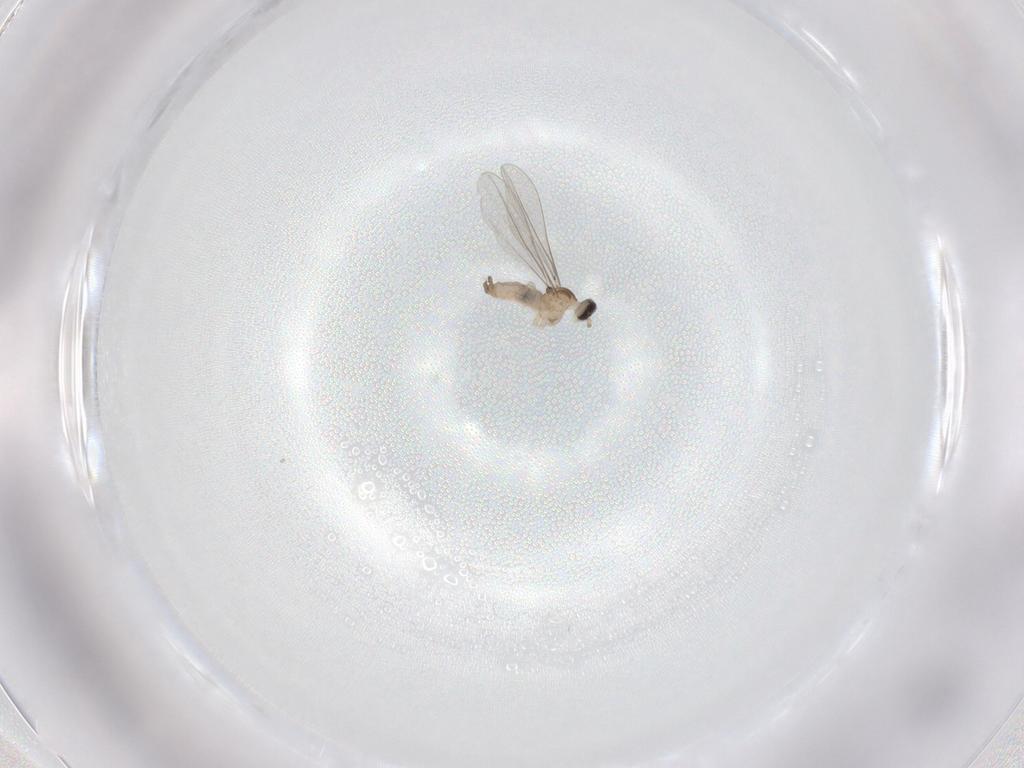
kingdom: Animalia
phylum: Arthropoda
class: Insecta
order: Diptera
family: Cecidomyiidae
